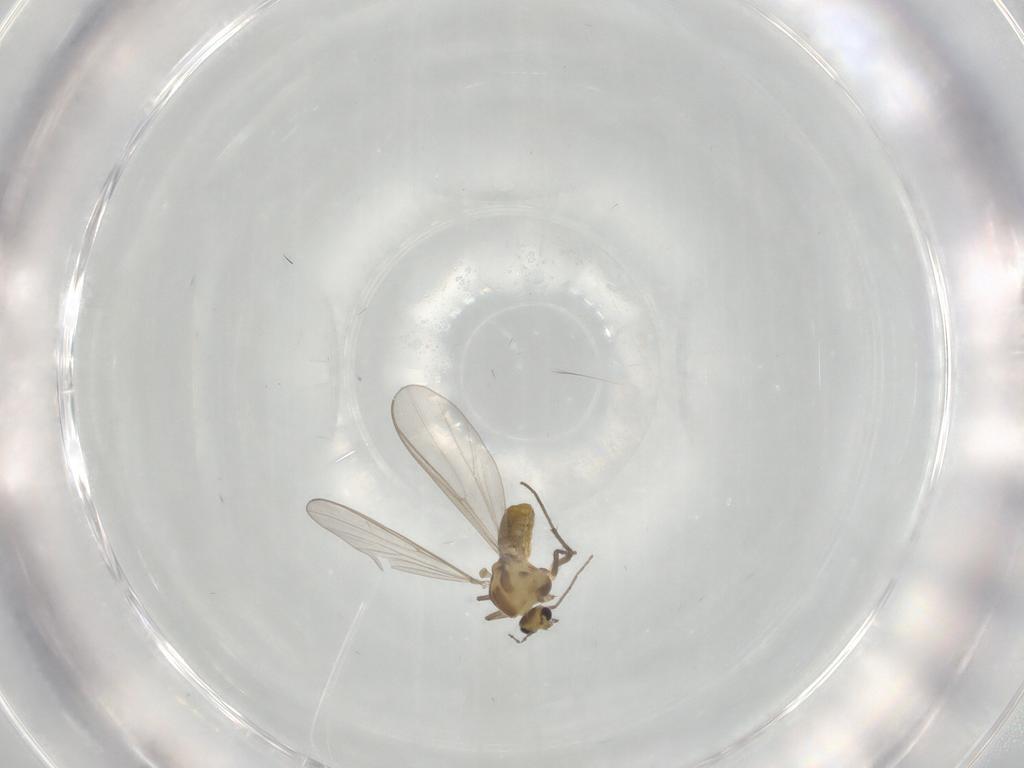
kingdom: Animalia
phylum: Arthropoda
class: Insecta
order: Diptera
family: Chironomidae
